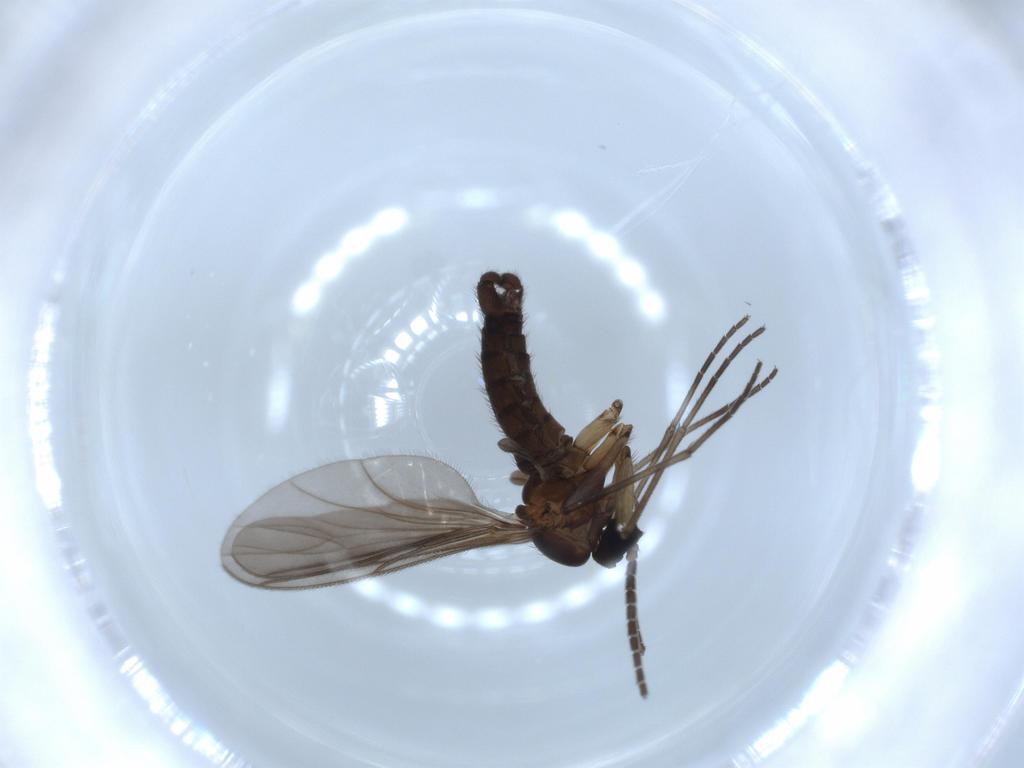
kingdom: Animalia
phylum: Arthropoda
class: Insecta
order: Diptera
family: Sciaridae
